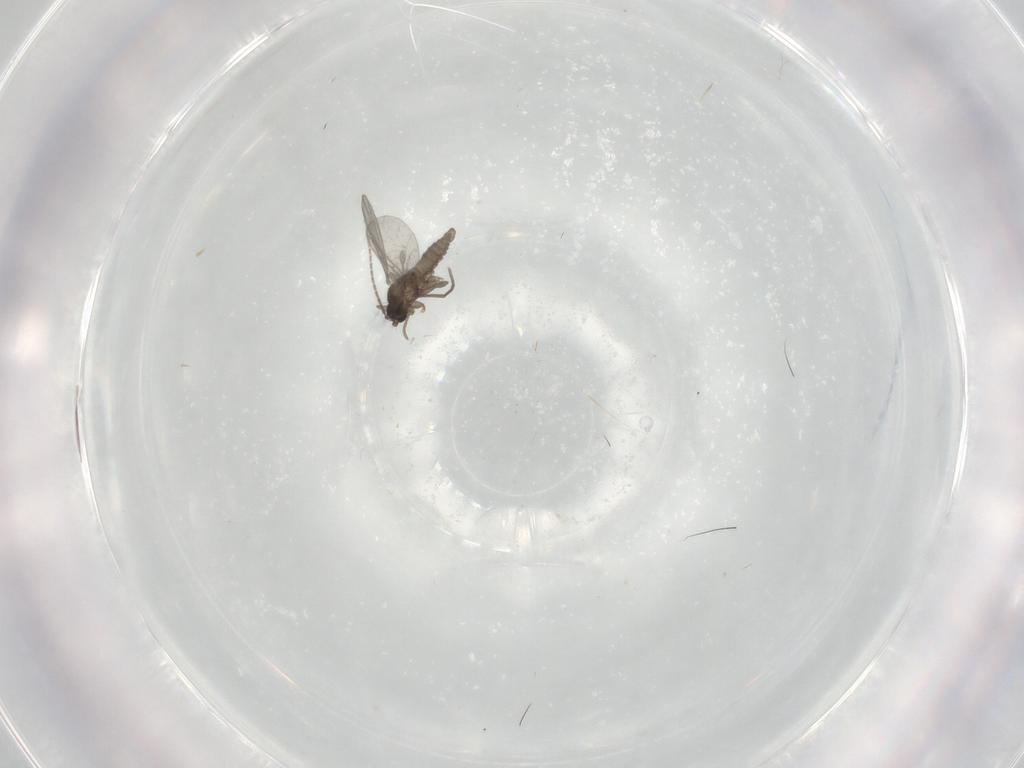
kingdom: Animalia
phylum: Arthropoda
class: Insecta
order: Diptera
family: Sciaridae
